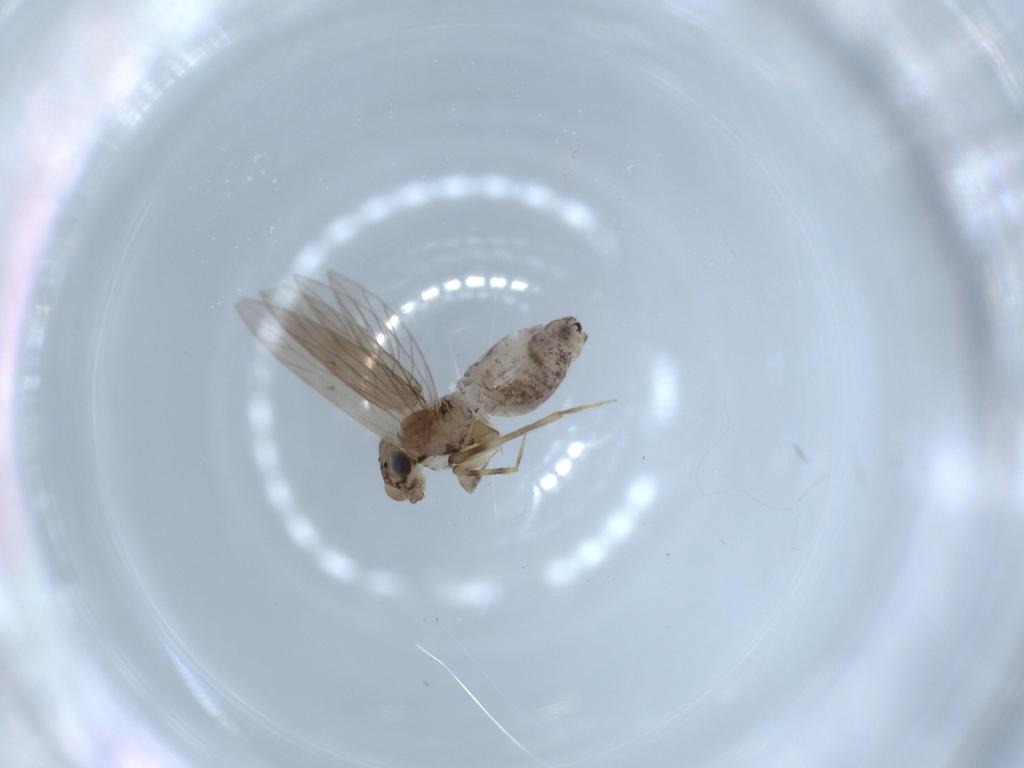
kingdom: Animalia
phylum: Arthropoda
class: Insecta
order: Psocodea
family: Lepidopsocidae
